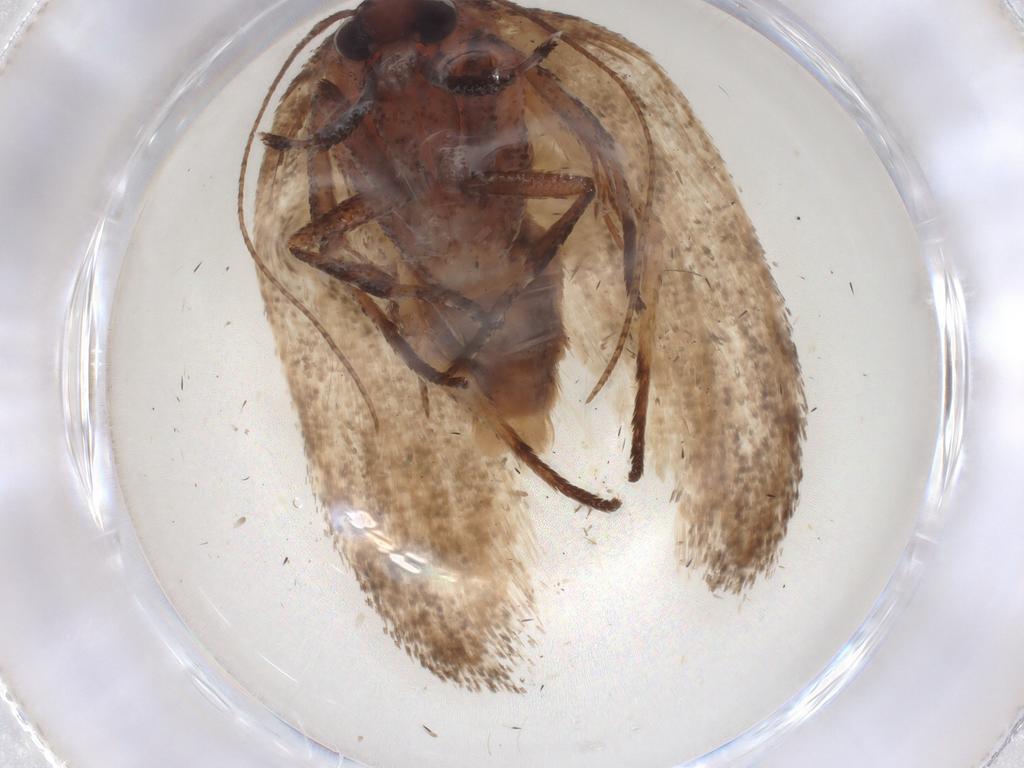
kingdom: Animalia
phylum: Arthropoda
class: Insecta
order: Lepidoptera
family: Cosmopterigidae
